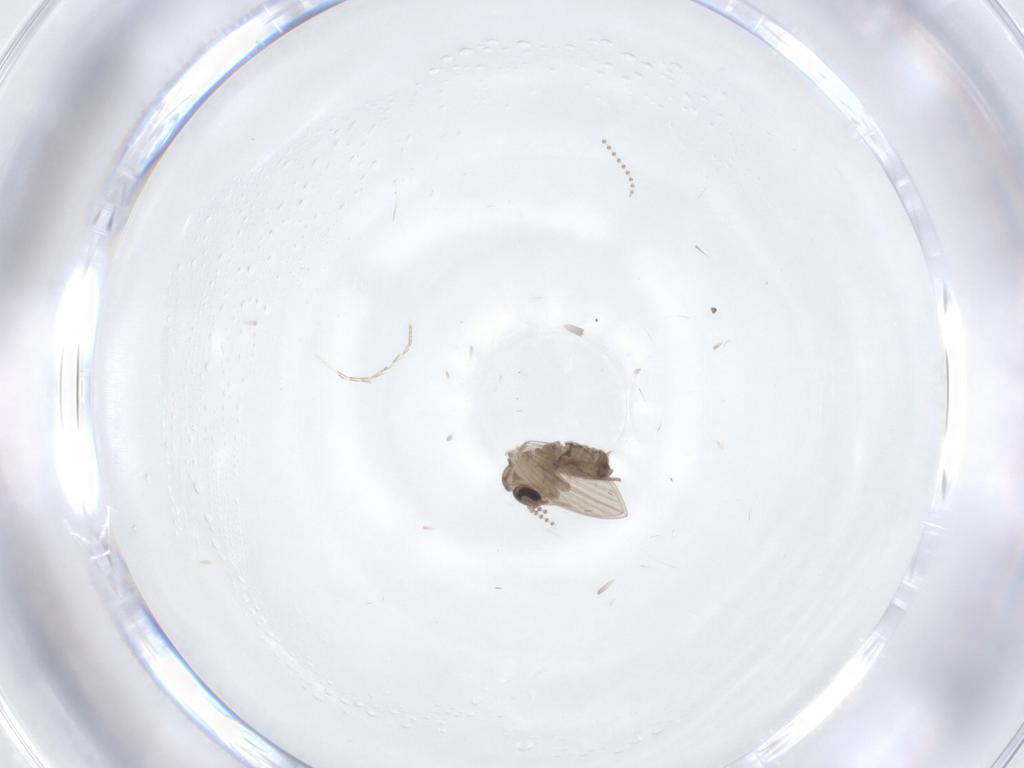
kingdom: Animalia
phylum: Arthropoda
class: Insecta
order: Diptera
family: Psychodidae
